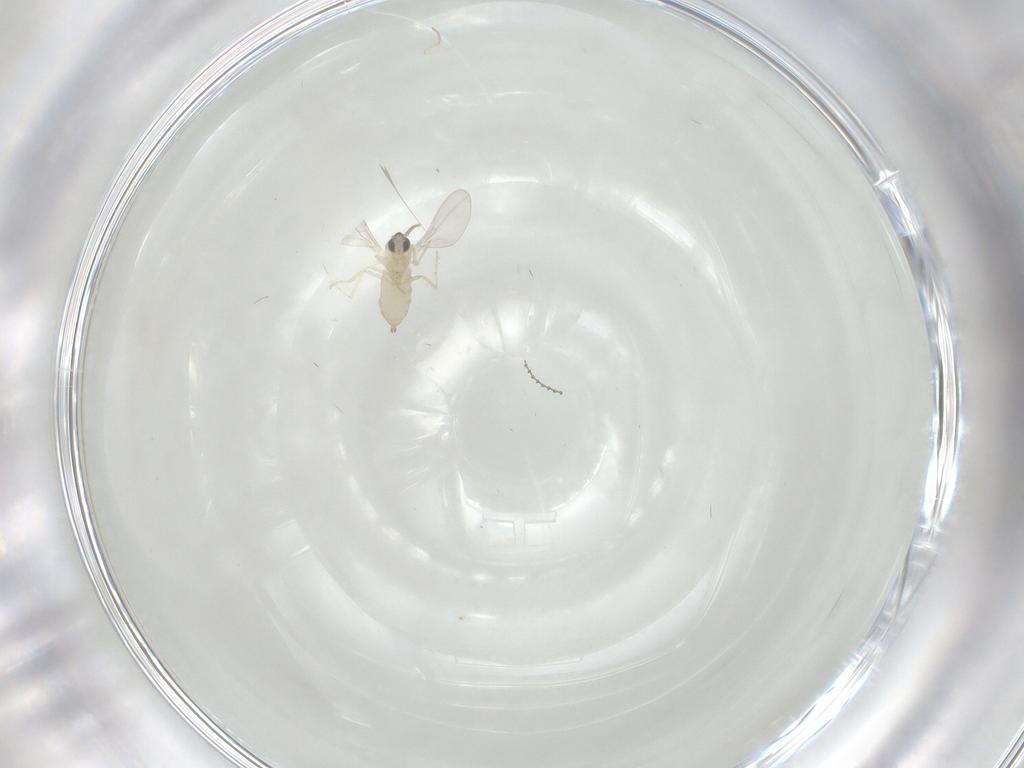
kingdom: Animalia
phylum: Arthropoda
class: Insecta
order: Diptera
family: Cecidomyiidae
